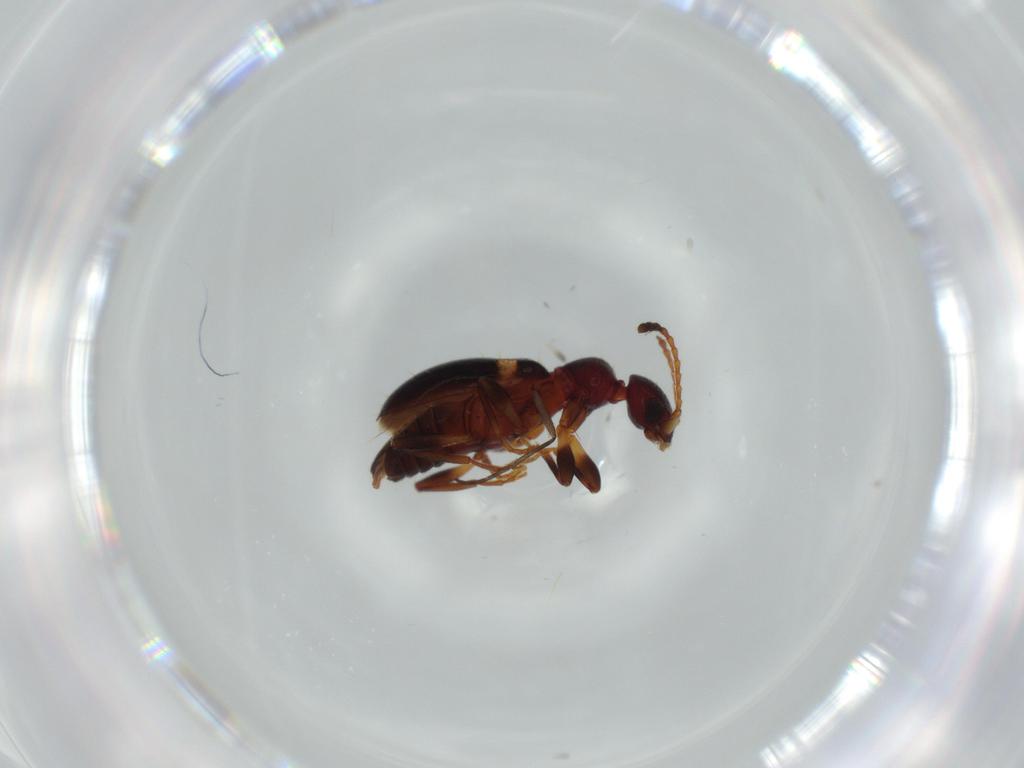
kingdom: Animalia
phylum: Arthropoda
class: Insecta
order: Coleoptera
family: Anthicidae
